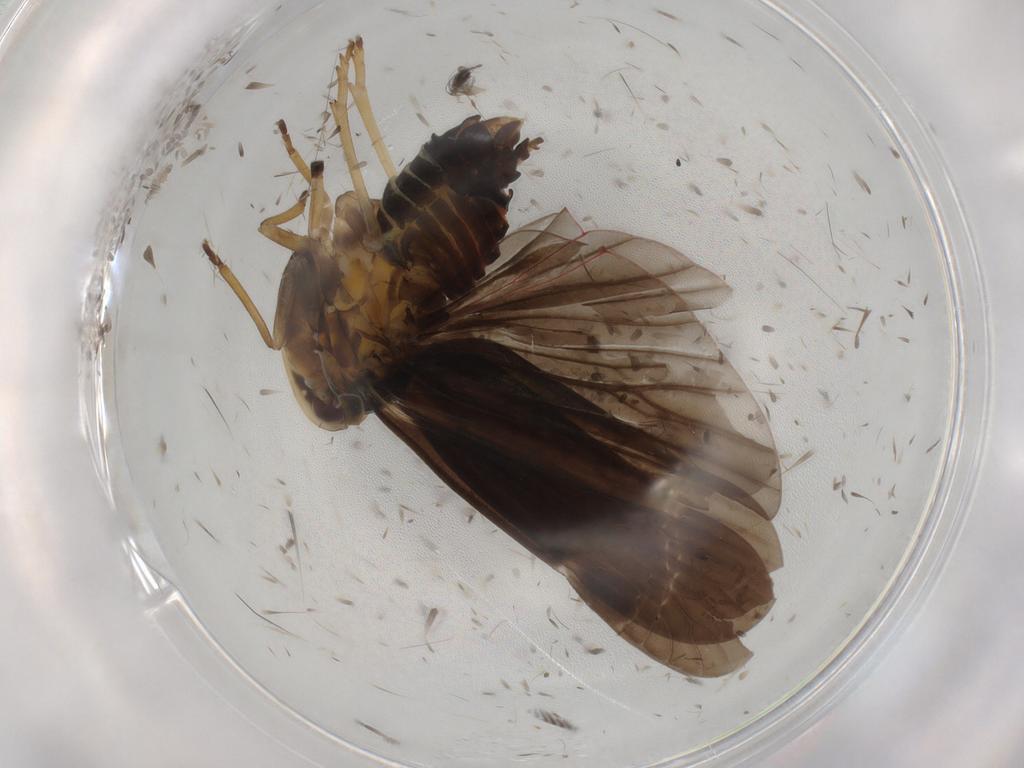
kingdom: Animalia
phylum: Arthropoda
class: Insecta
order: Hemiptera
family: Derbidae
